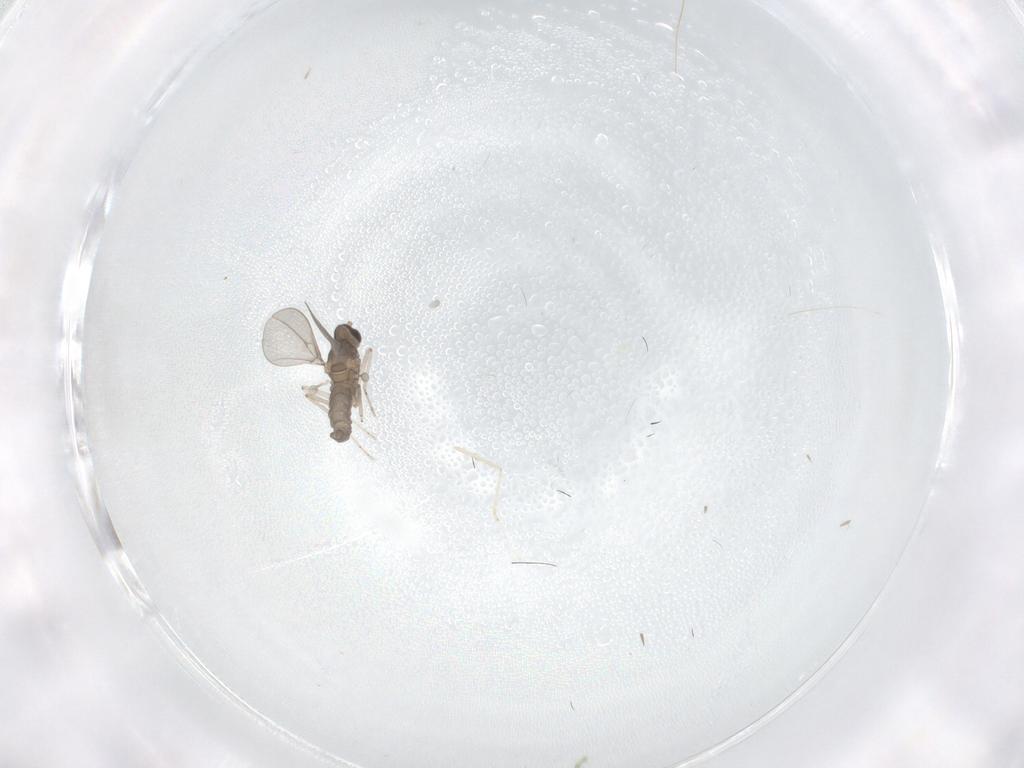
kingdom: Animalia
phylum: Arthropoda
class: Insecta
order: Diptera
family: Cecidomyiidae
